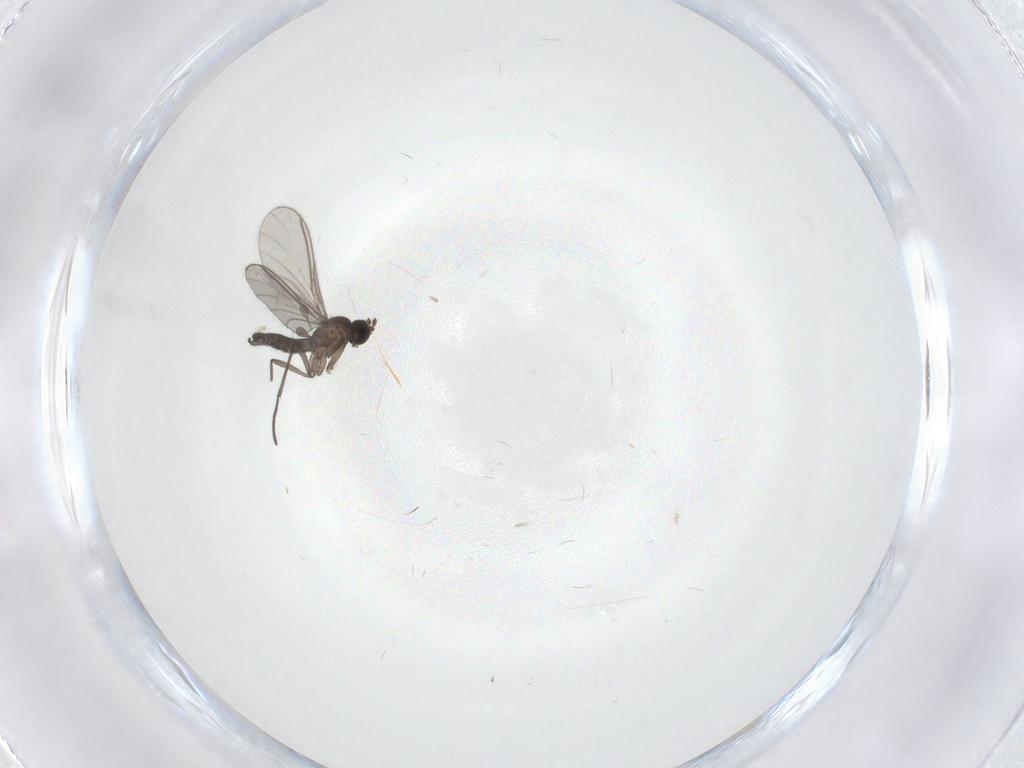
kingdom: Animalia
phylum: Arthropoda
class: Insecta
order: Diptera
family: Sciaridae
